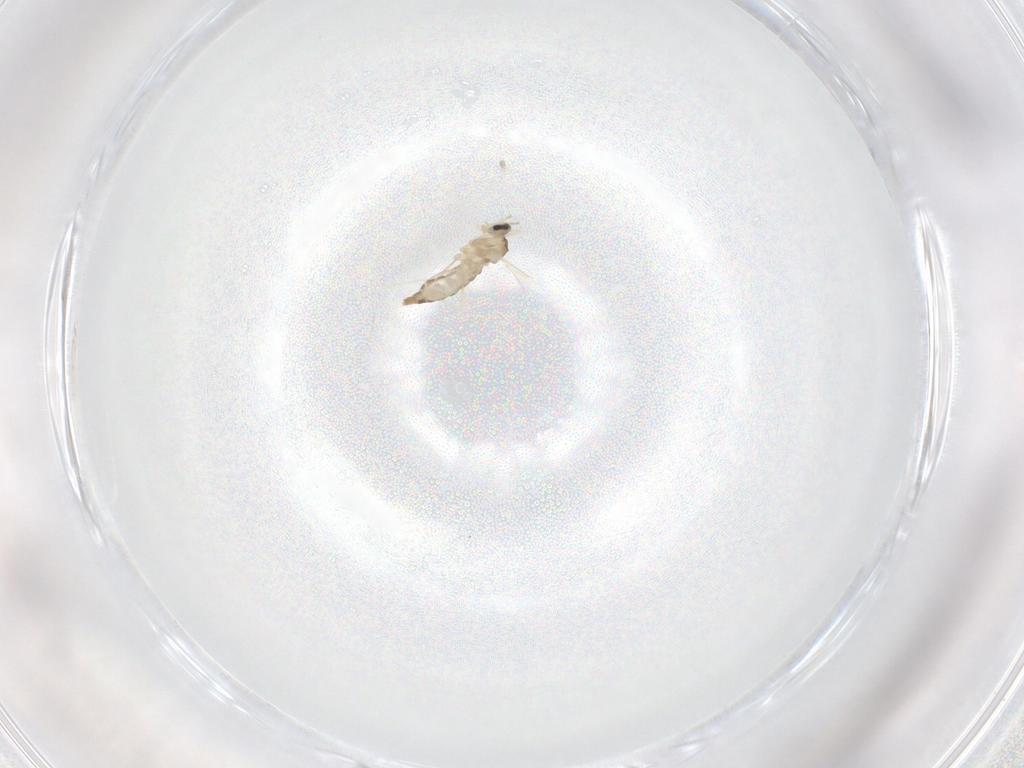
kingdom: Animalia
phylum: Arthropoda
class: Insecta
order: Diptera
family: Cecidomyiidae
